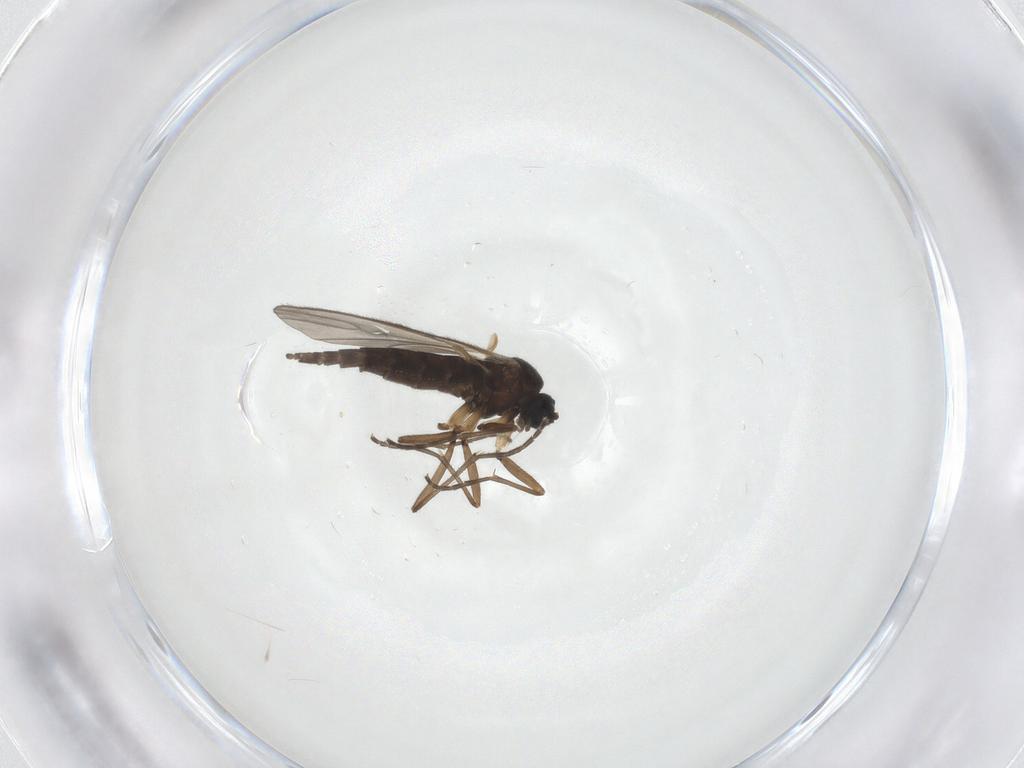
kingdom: Animalia
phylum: Arthropoda
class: Insecta
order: Diptera
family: Sciaridae
